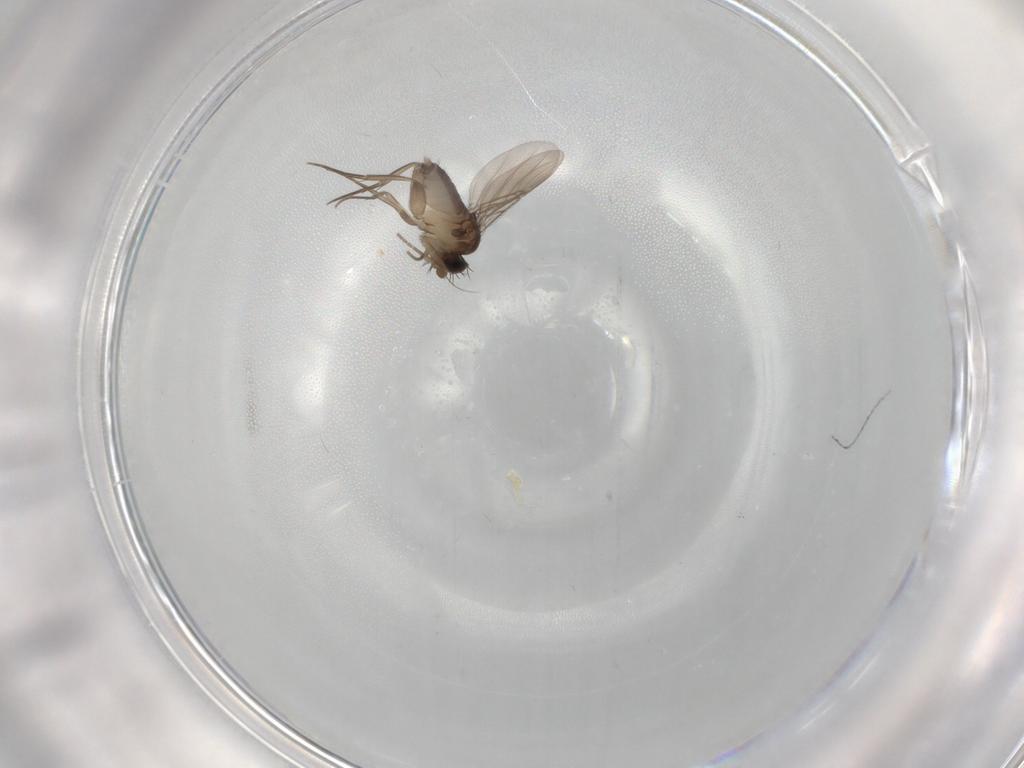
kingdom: Animalia
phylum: Arthropoda
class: Insecta
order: Diptera
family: Phoridae
